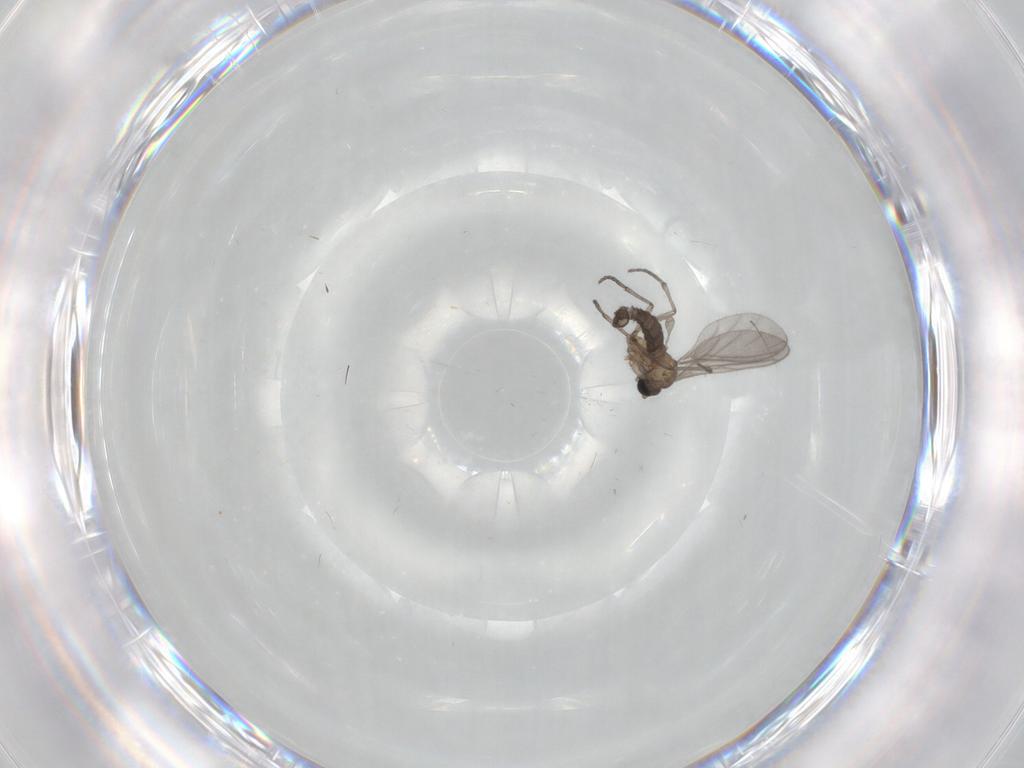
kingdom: Animalia
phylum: Arthropoda
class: Insecta
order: Diptera
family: Sciaridae
